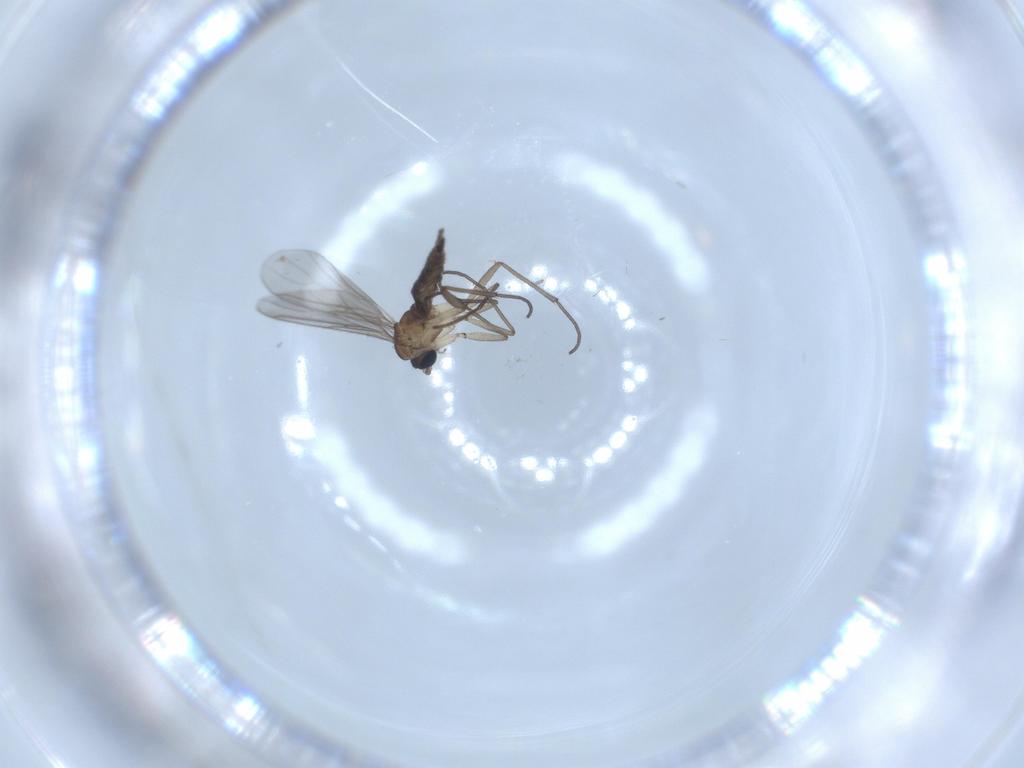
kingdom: Animalia
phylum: Arthropoda
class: Insecta
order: Diptera
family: Sciaridae
